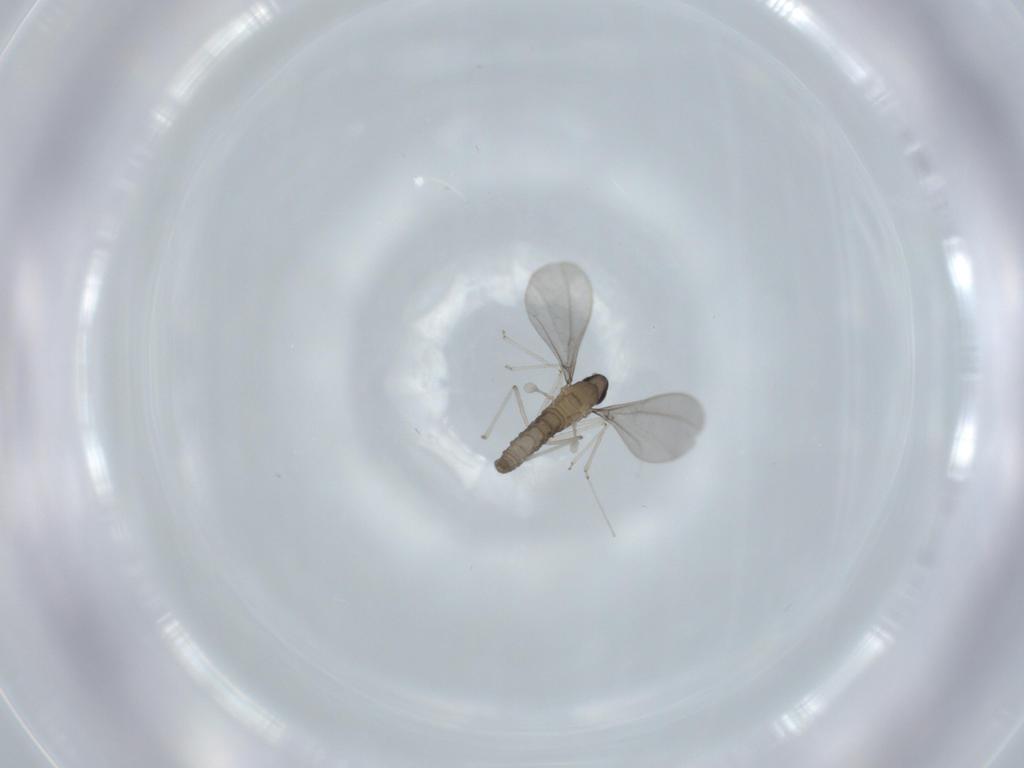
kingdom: Animalia
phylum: Arthropoda
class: Insecta
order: Diptera
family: Cecidomyiidae
